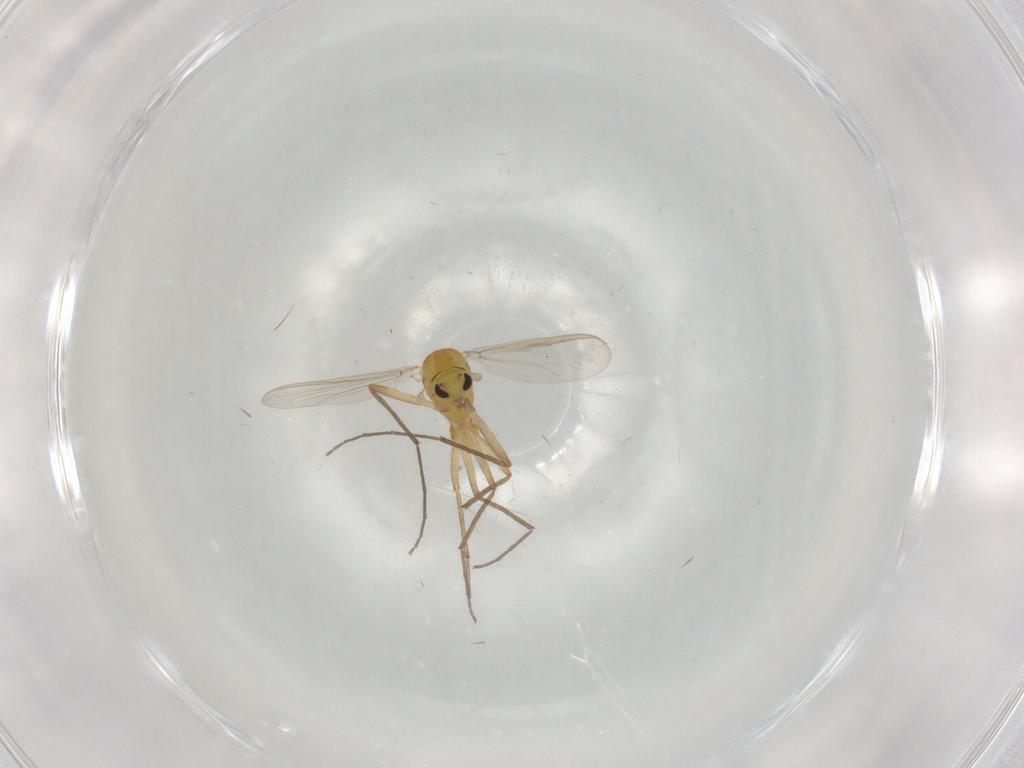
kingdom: Animalia
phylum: Arthropoda
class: Insecta
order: Diptera
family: Chironomidae
